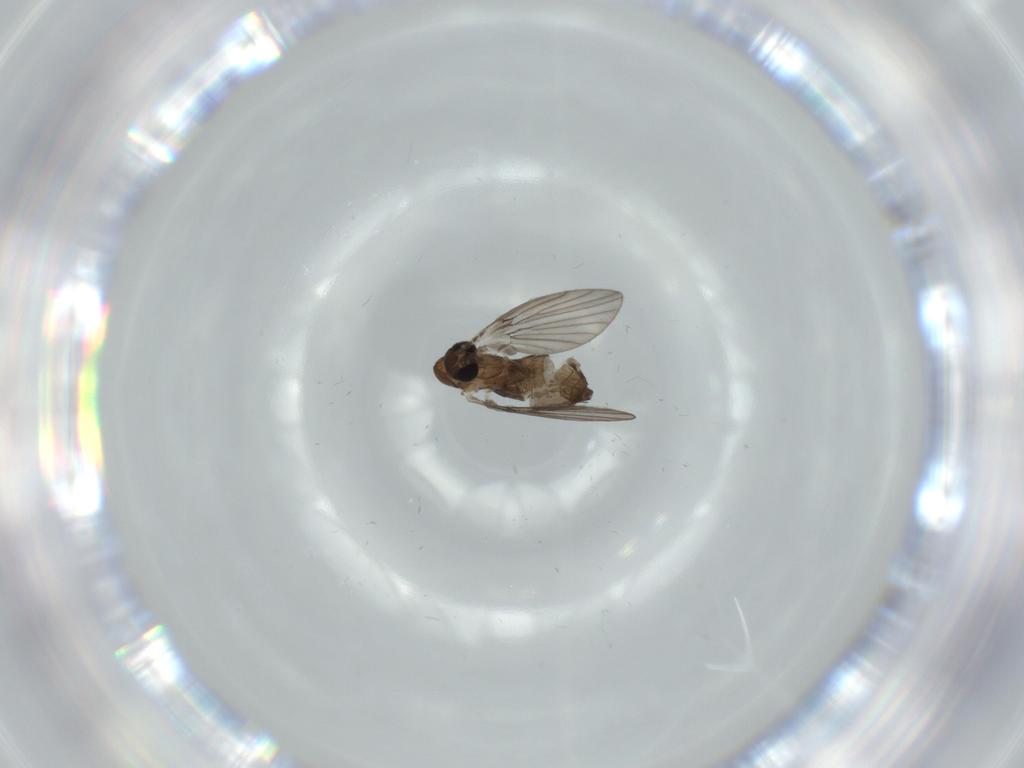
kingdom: Animalia
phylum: Arthropoda
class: Insecta
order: Diptera
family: Psychodidae
